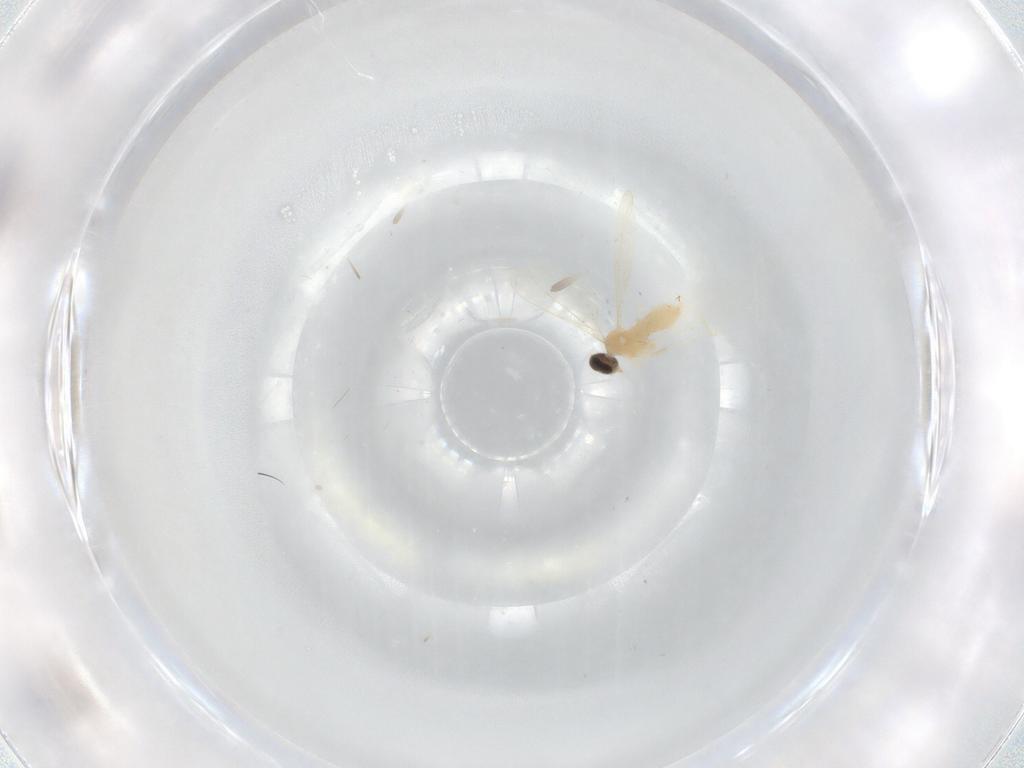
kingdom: Animalia
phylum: Arthropoda
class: Insecta
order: Diptera
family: Cecidomyiidae
